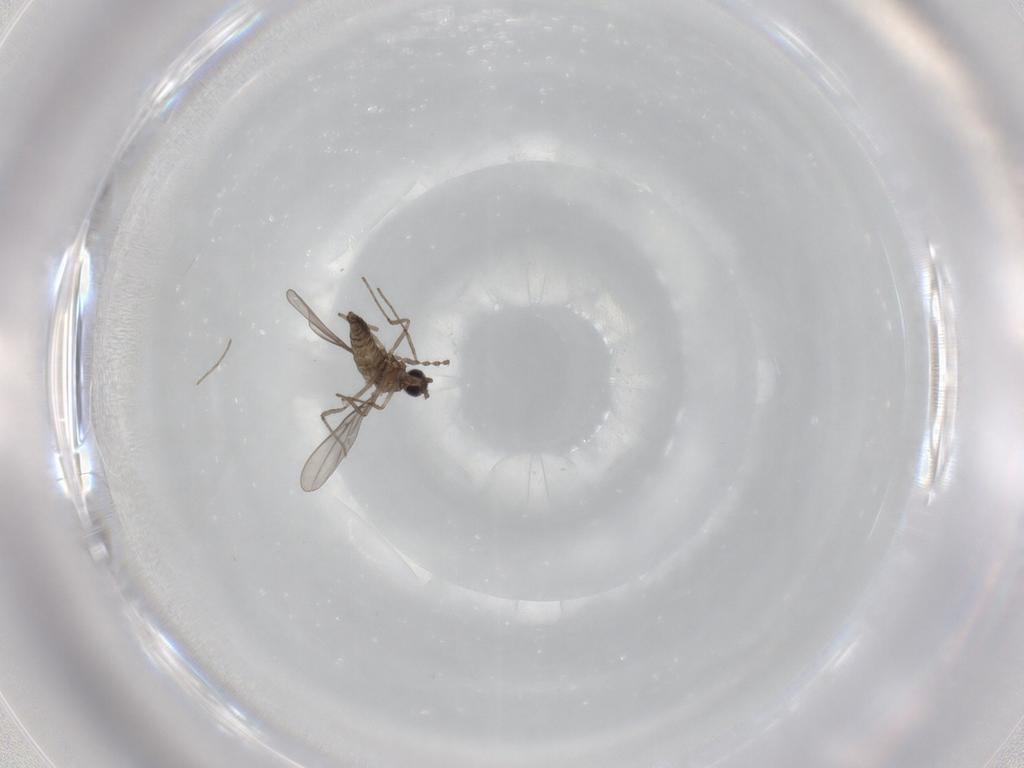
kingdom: Animalia
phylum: Arthropoda
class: Insecta
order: Diptera
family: Cecidomyiidae
